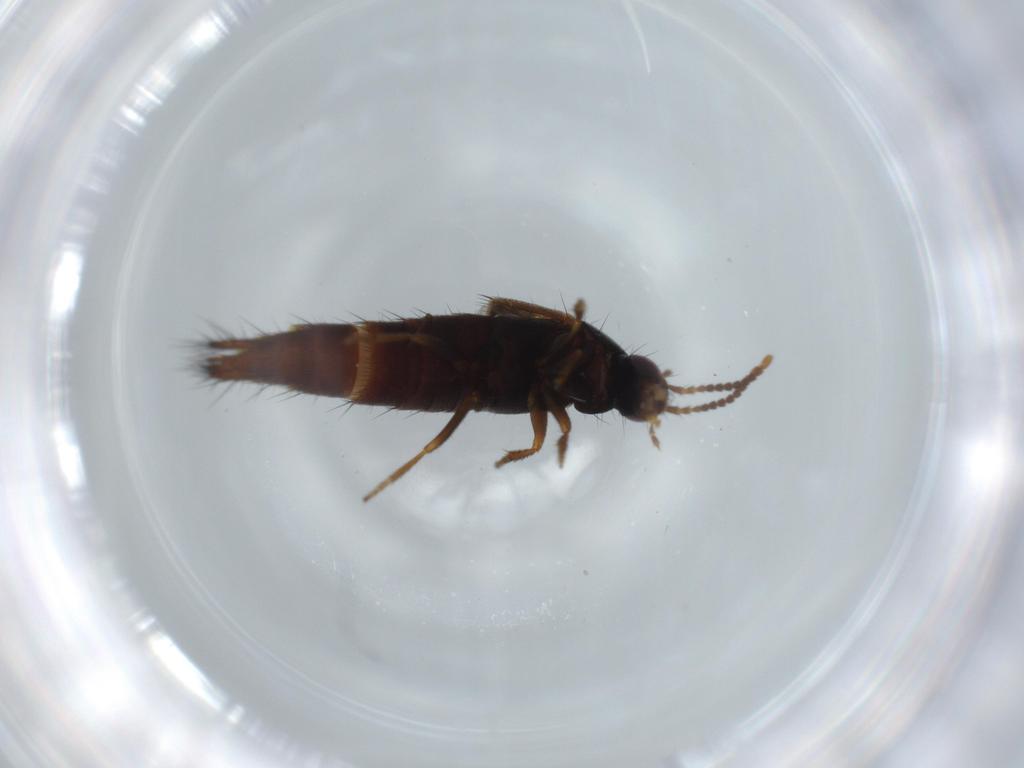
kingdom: Animalia
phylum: Arthropoda
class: Insecta
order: Coleoptera
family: Staphylinidae
